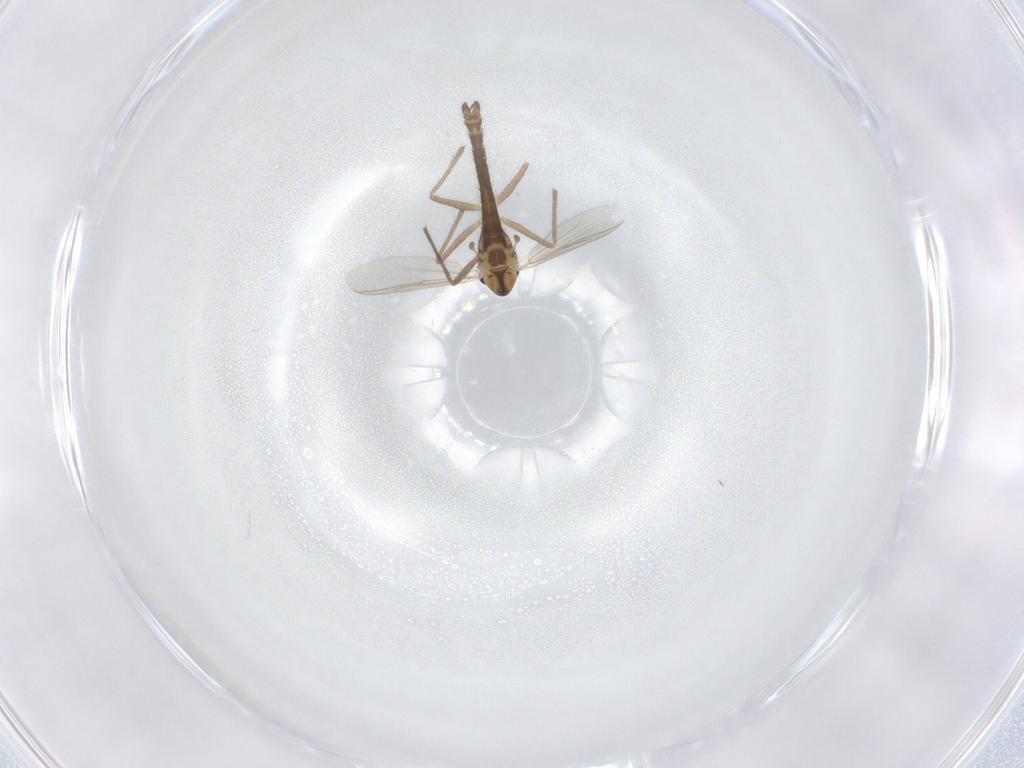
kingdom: Animalia
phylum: Arthropoda
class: Insecta
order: Diptera
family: Chironomidae
